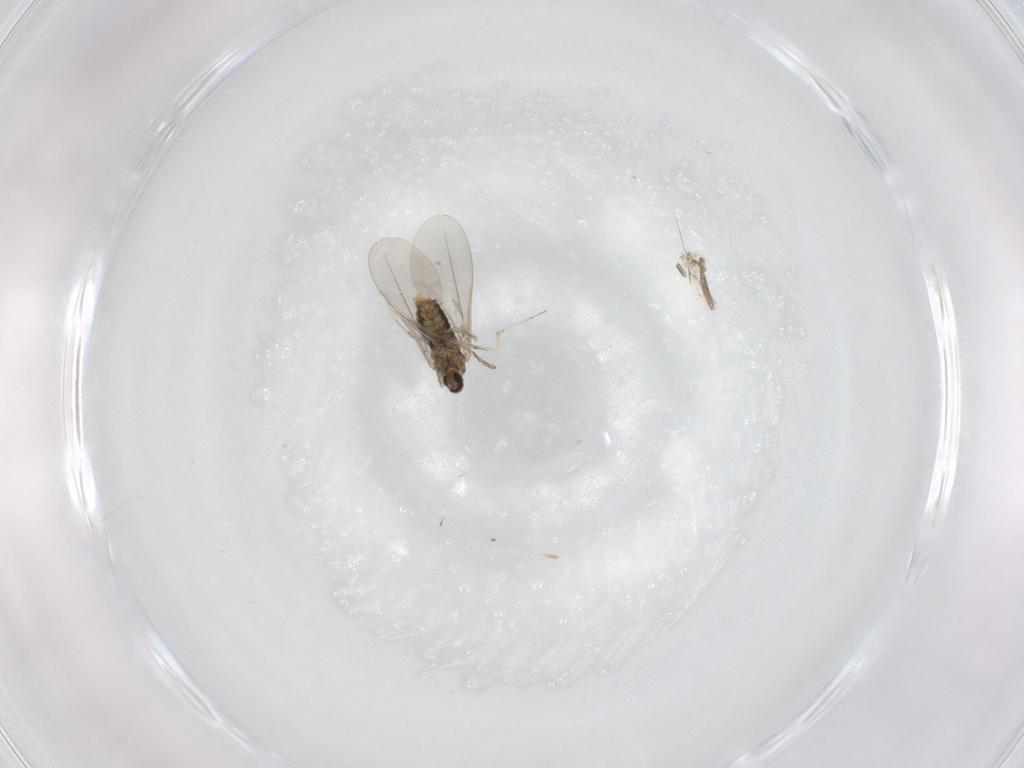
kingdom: Animalia
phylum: Arthropoda
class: Insecta
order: Diptera
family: Cecidomyiidae
